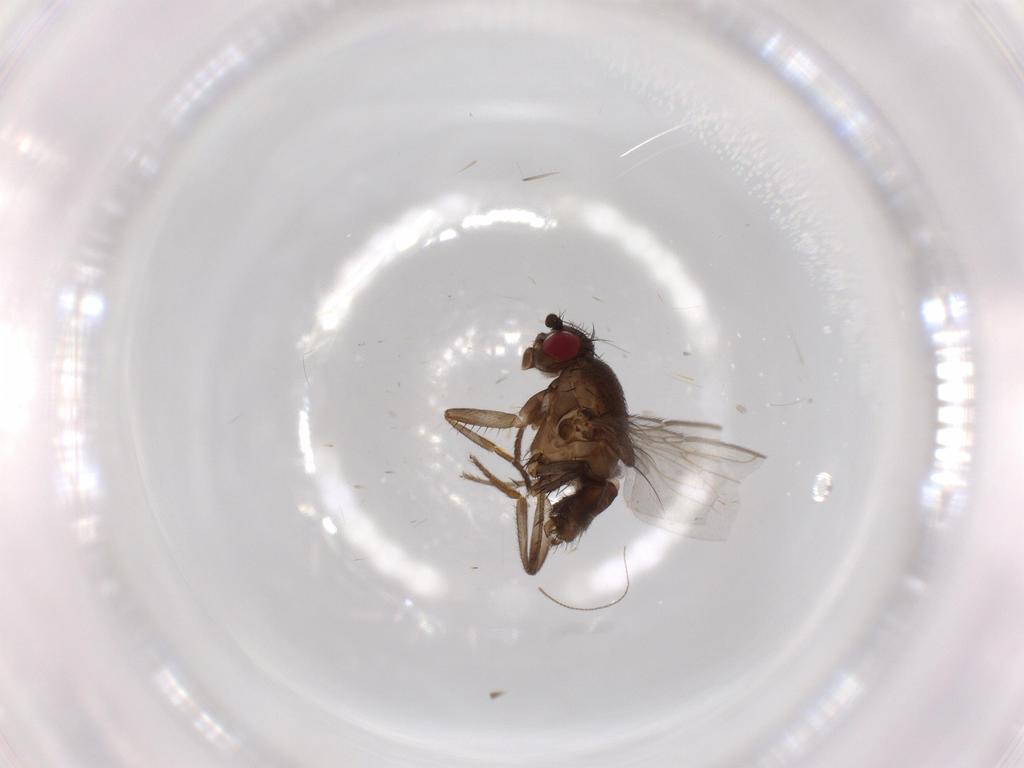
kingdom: Animalia
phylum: Arthropoda
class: Insecta
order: Diptera
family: Sphaeroceridae
